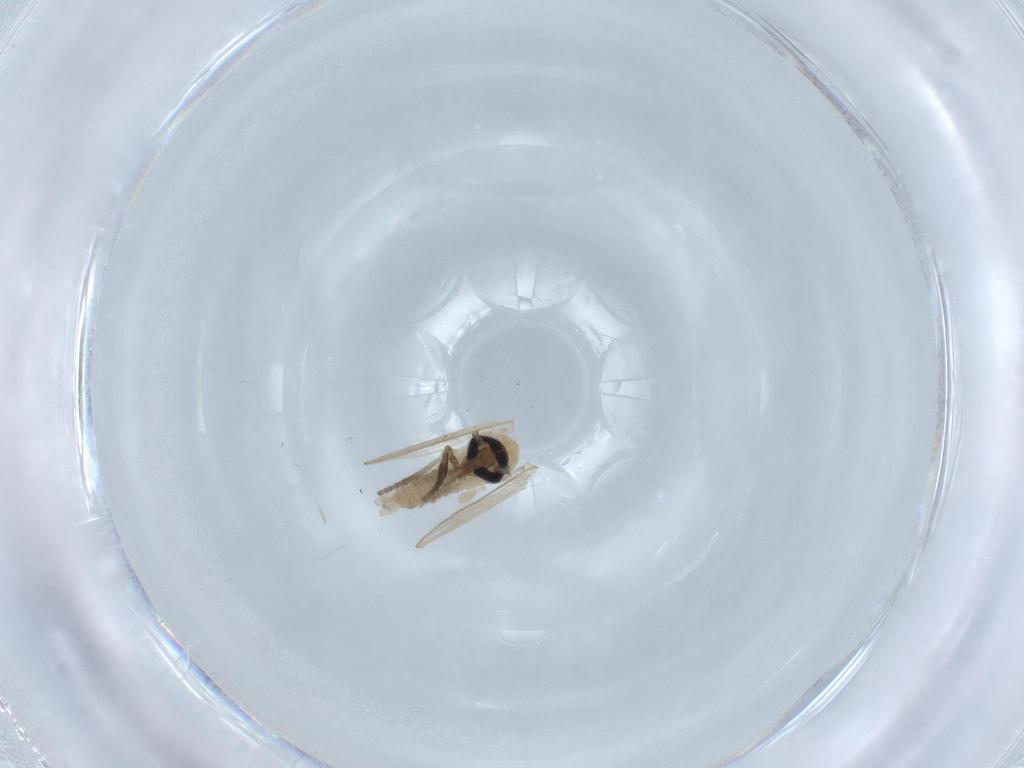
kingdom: Animalia
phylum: Arthropoda
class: Insecta
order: Diptera
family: Psychodidae
